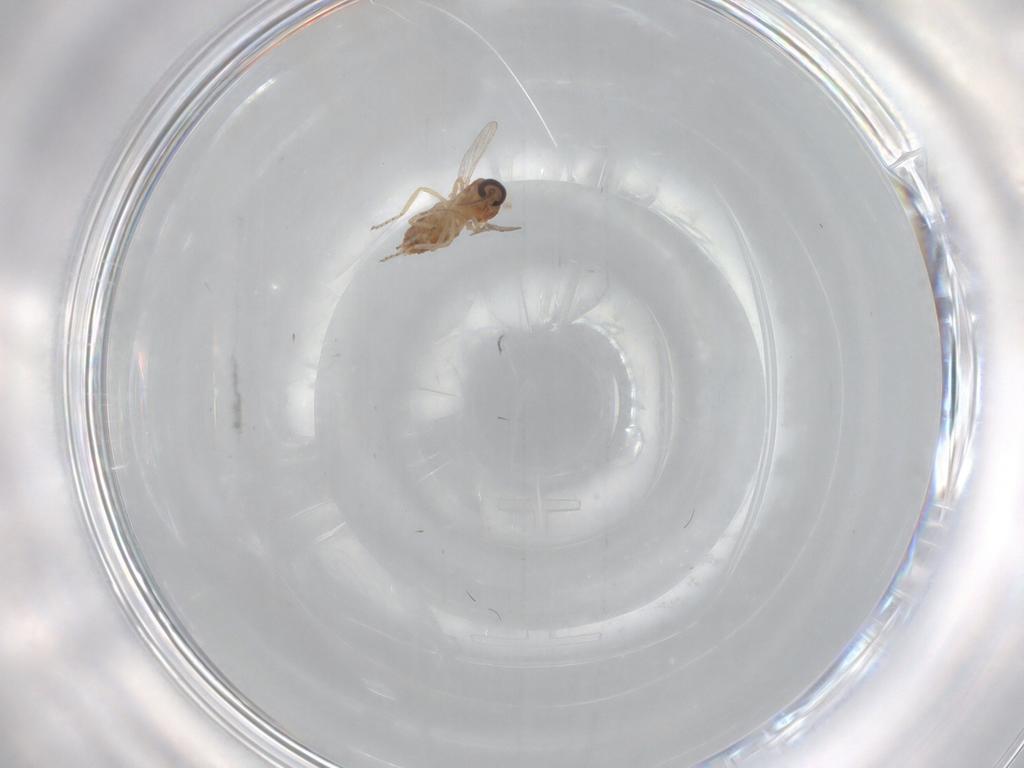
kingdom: Animalia
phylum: Arthropoda
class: Insecta
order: Diptera
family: Ceratopogonidae
